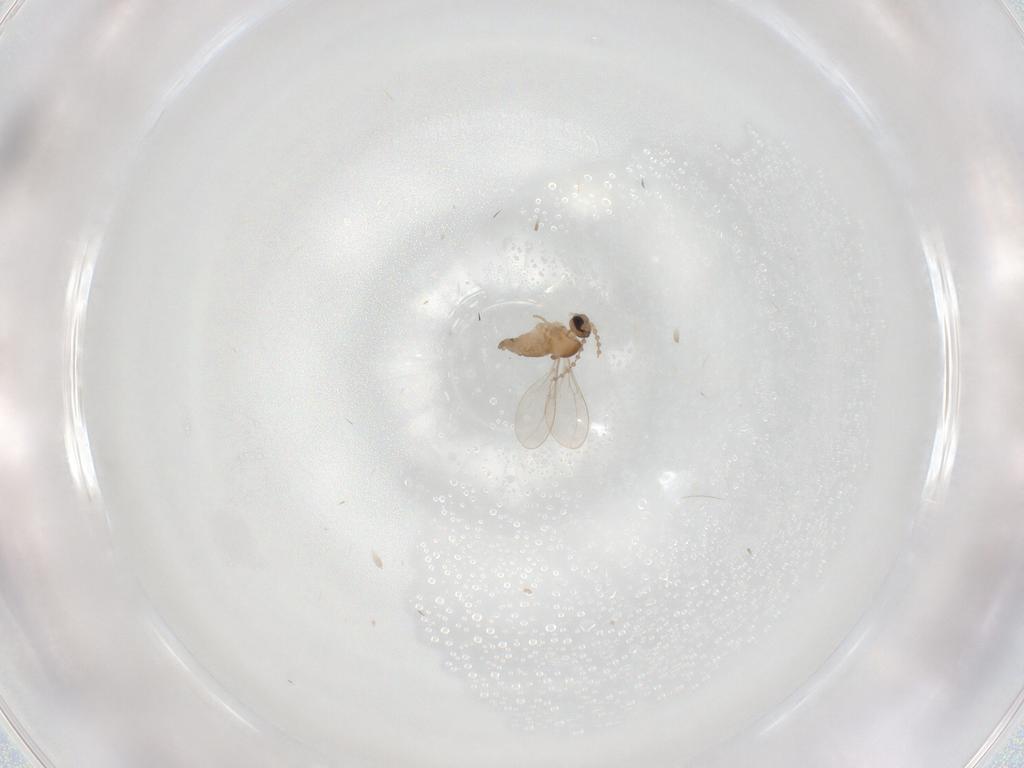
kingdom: Animalia
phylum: Arthropoda
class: Insecta
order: Diptera
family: Cecidomyiidae
